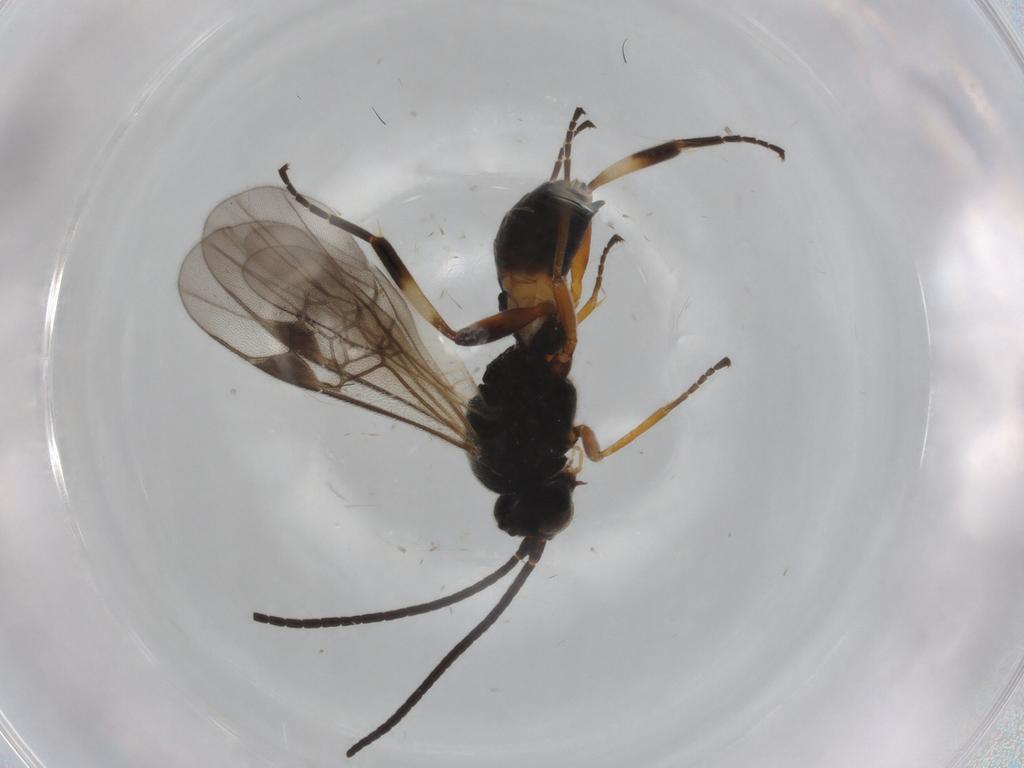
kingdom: Animalia
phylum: Arthropoda
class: Insecta
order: Hymenoptera
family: Braconidae
